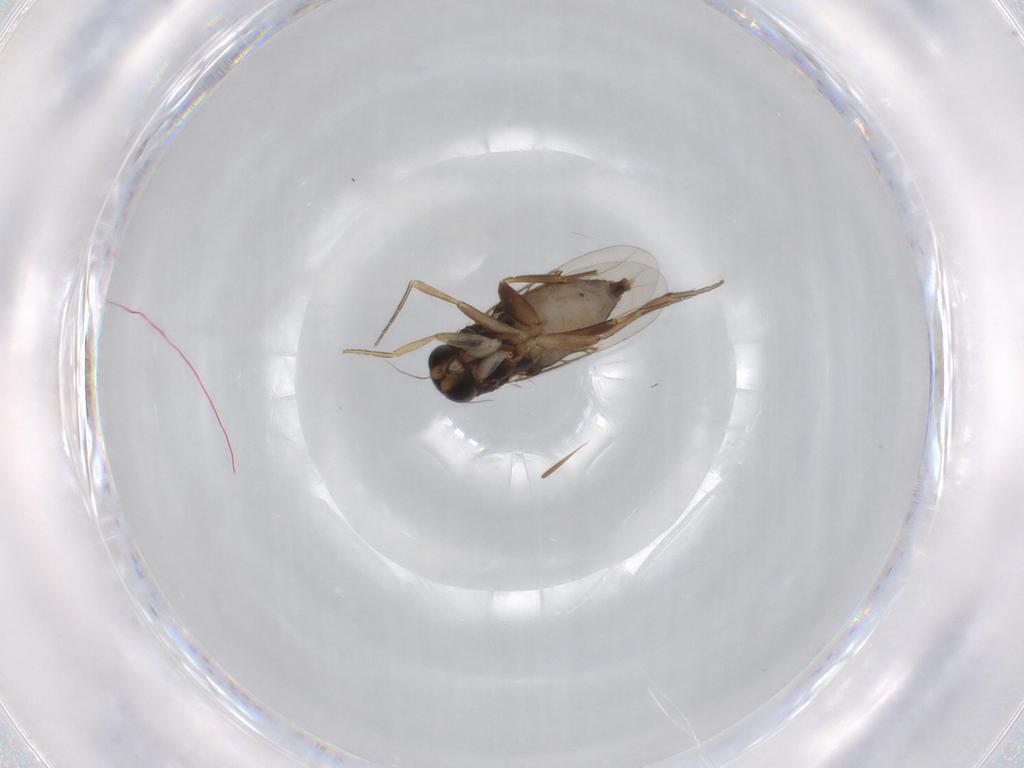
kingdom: Animalia
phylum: Arthropoda
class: Insecta
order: Diptera
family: Phoridae
